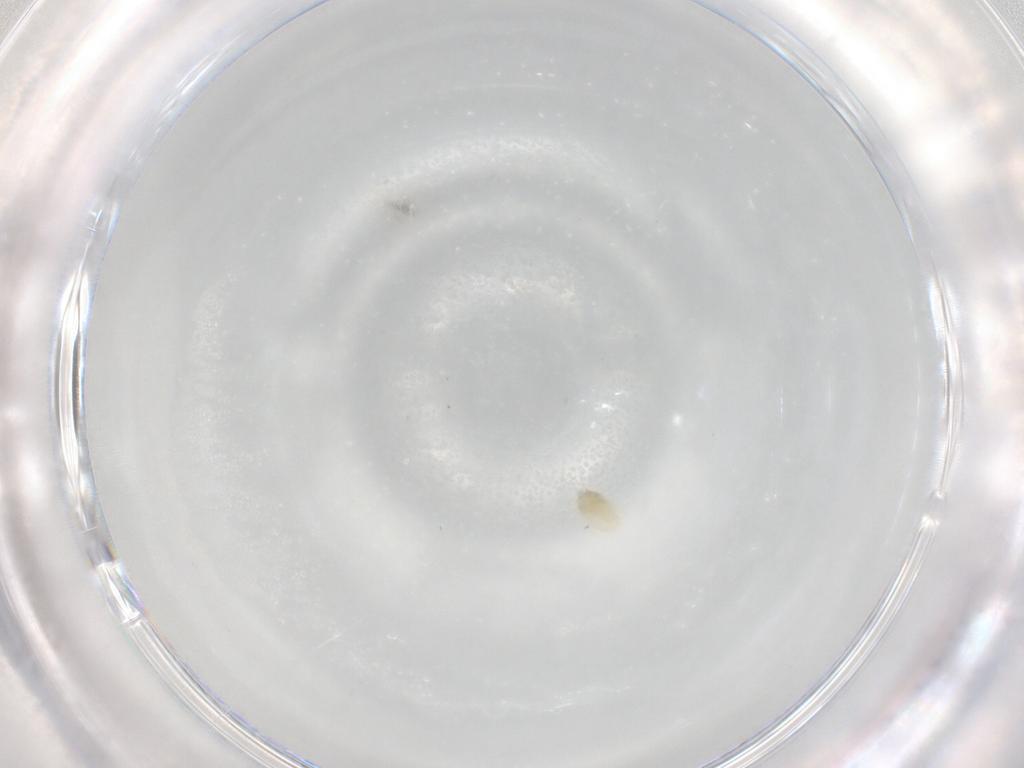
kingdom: Animalia
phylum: Arthropoda
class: Arachnida
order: Trombidiformes
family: Eupodidae
